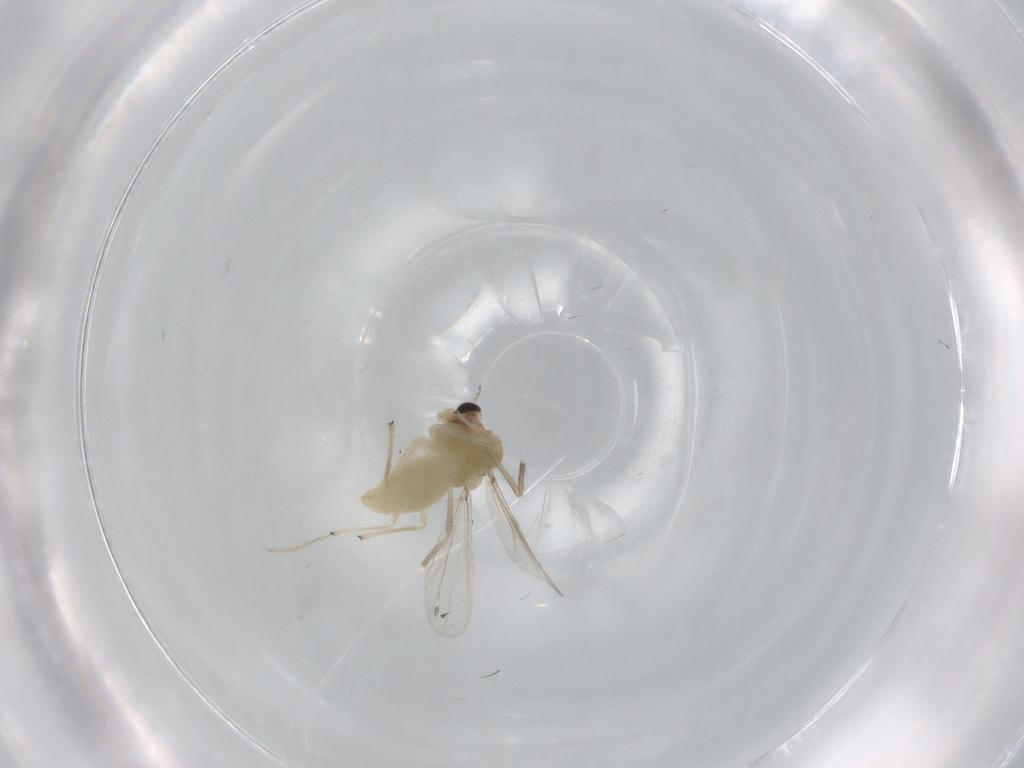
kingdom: Animalia
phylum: Arthropoda
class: Insecta
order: Diptera
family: Chironomidae
